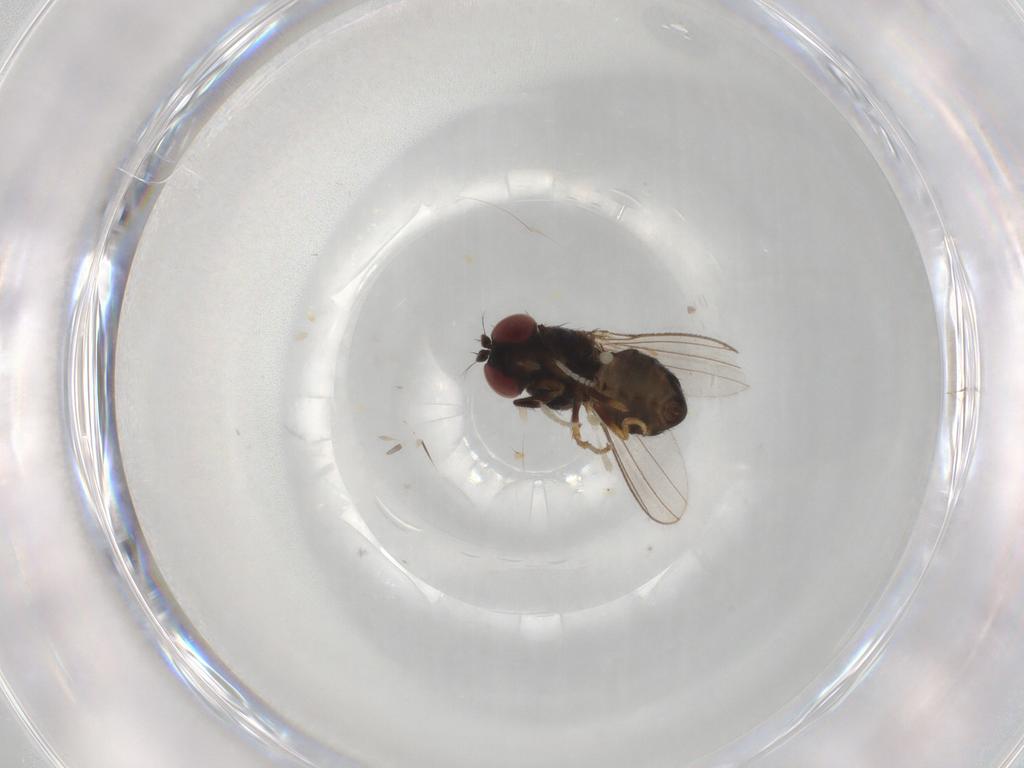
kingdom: Animalia
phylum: Arthropoda
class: Insecta
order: Diptera
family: Ephydridae
